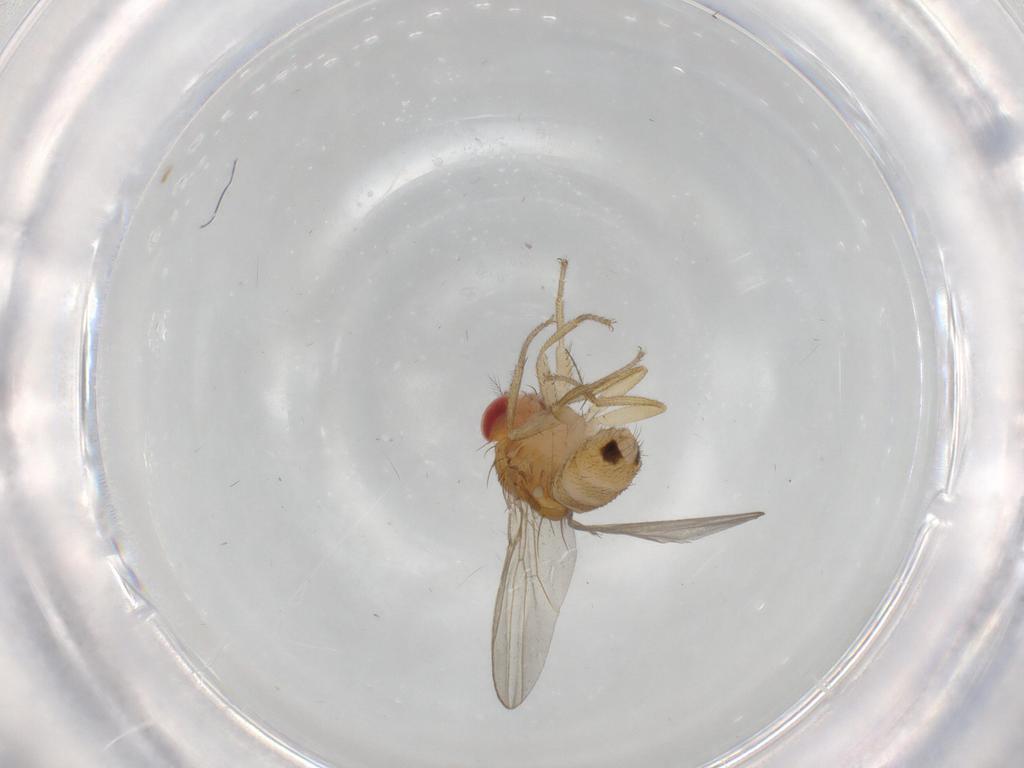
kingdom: Animalia
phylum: Arthropoda
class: Insecta
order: Diptera
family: Drosophilidae
